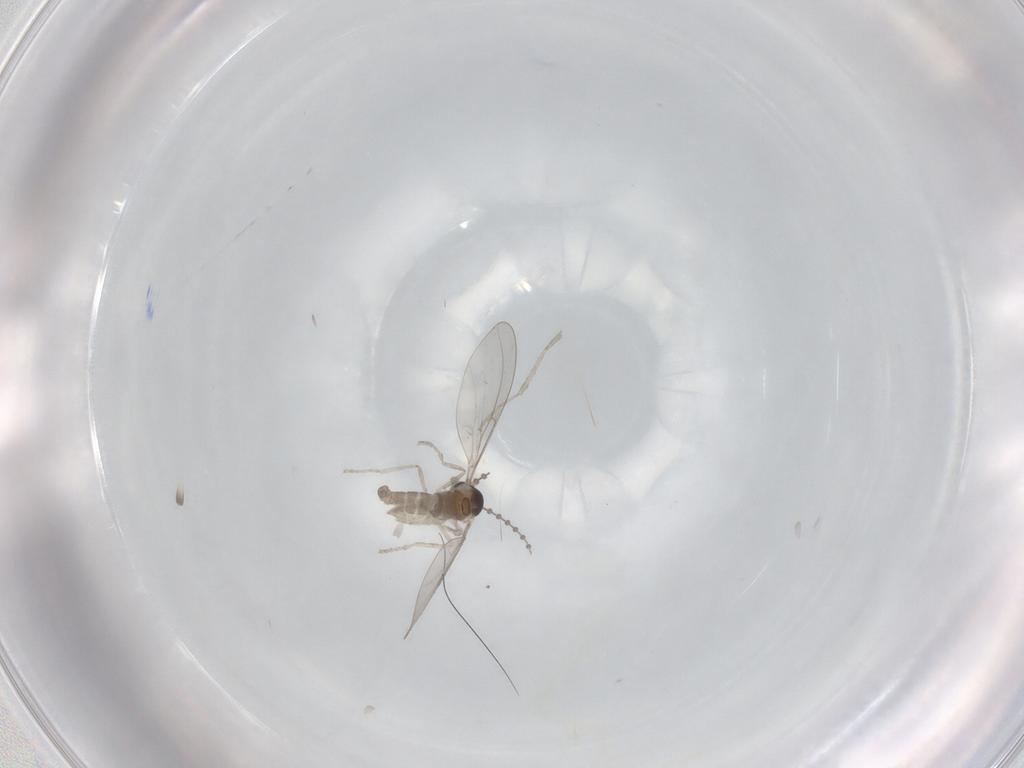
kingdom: Animalia
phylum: Arthropoda
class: Insecta
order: Diptera
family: Cecidomyiidae
